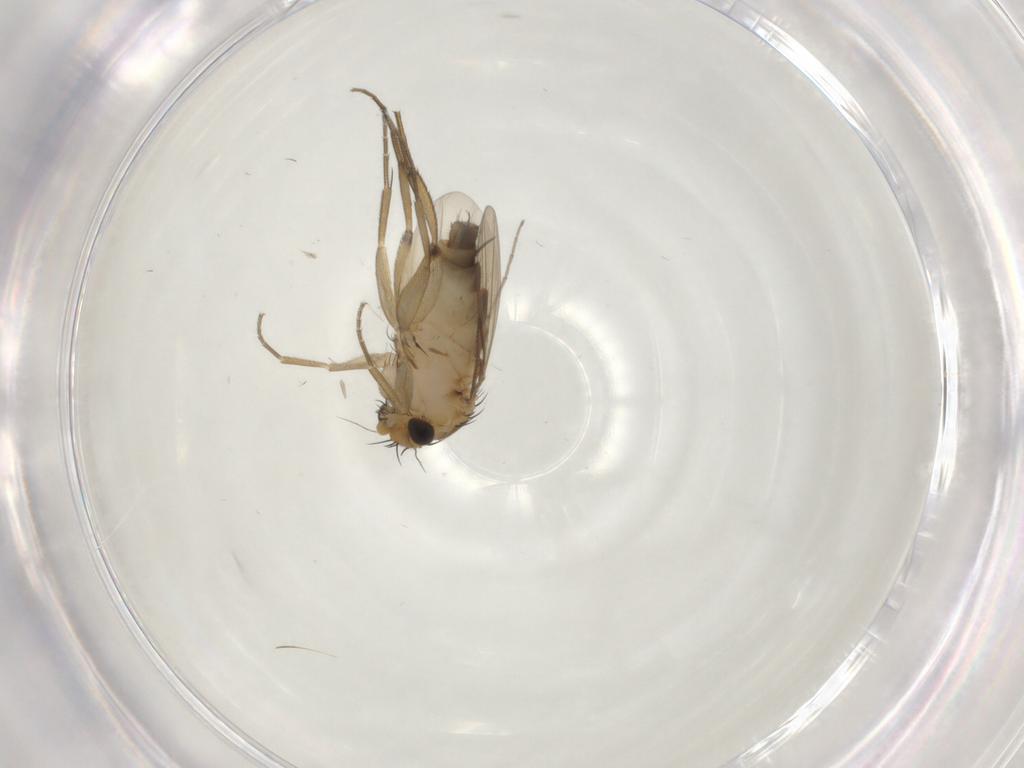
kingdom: Animalia
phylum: Arthropoda
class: Insecta
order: Diptera
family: Chironomidae
